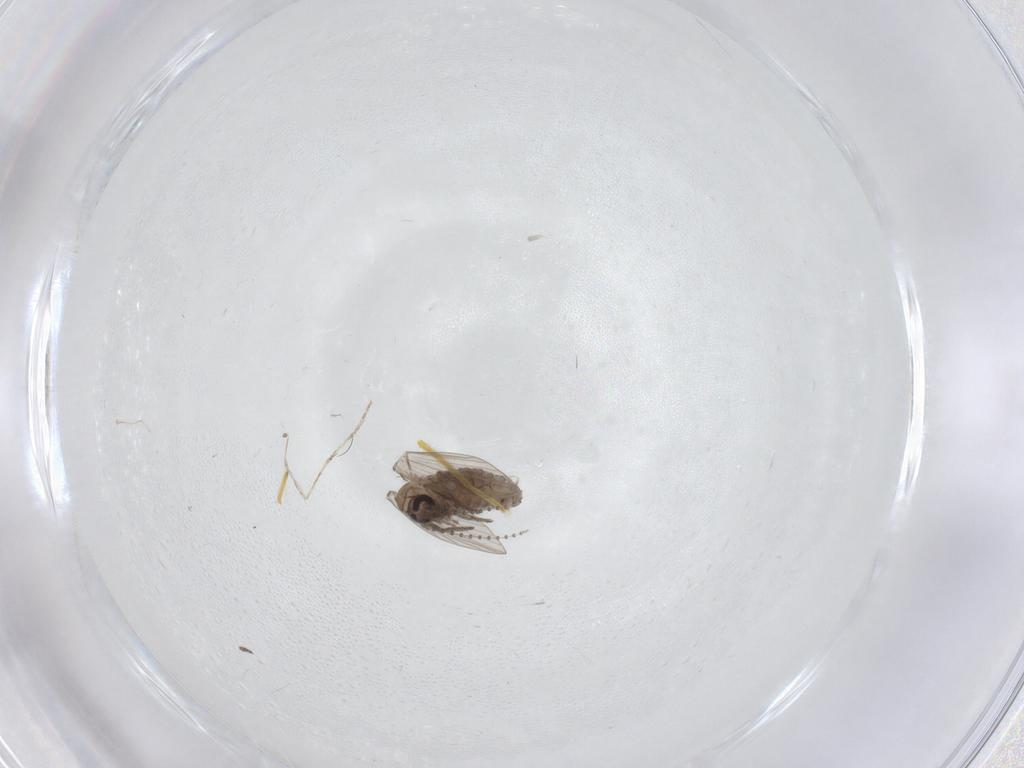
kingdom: Animalia
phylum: Arthropoda
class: Insecta
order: Diptera
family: Psychodidae
